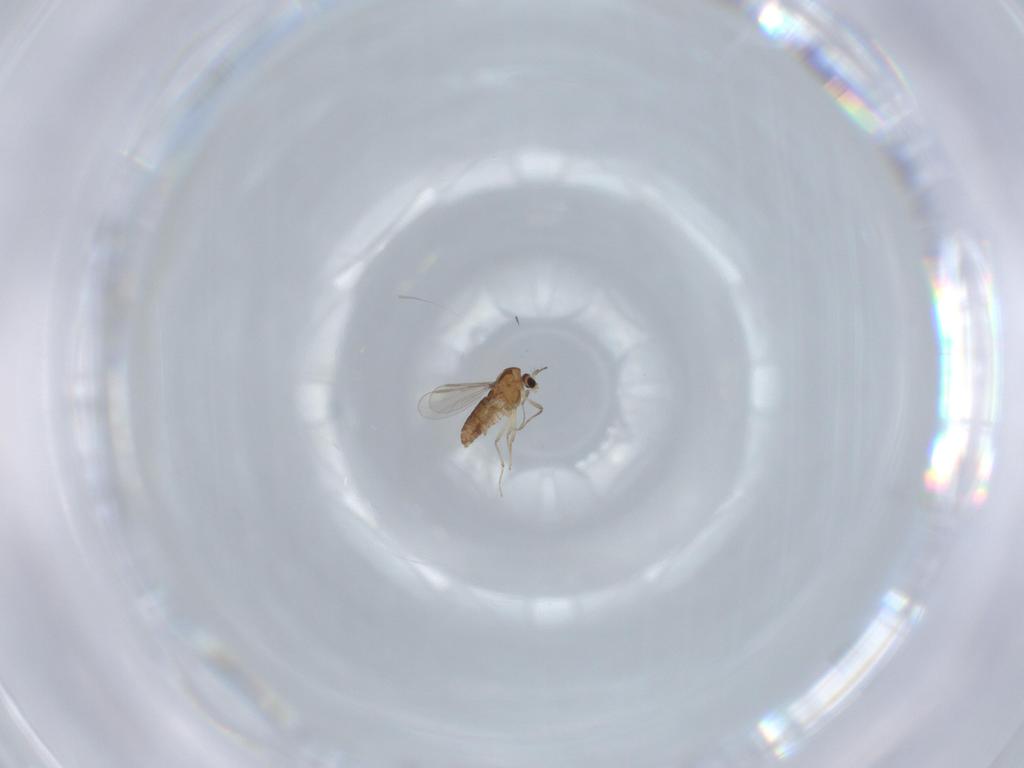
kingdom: Animalia
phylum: Arthropoda
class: Insecta
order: Diptera
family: Chloropidae
